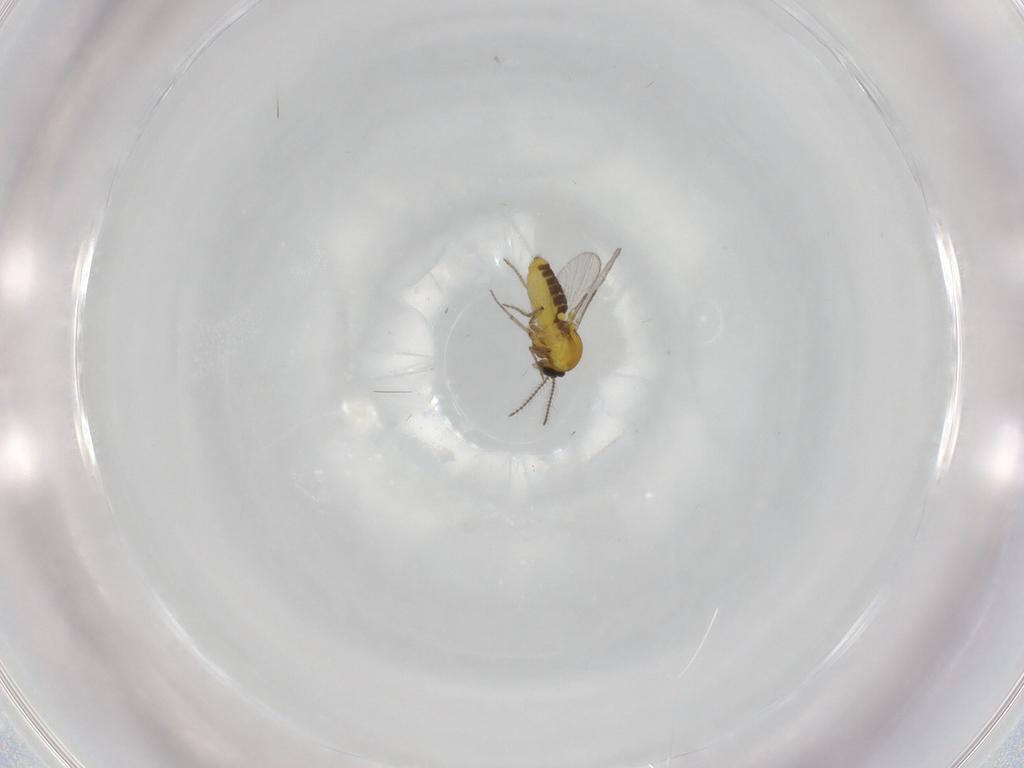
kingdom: Animalia
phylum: Arthropoda
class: Insecta
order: Diptera
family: Ceratopogonidae
